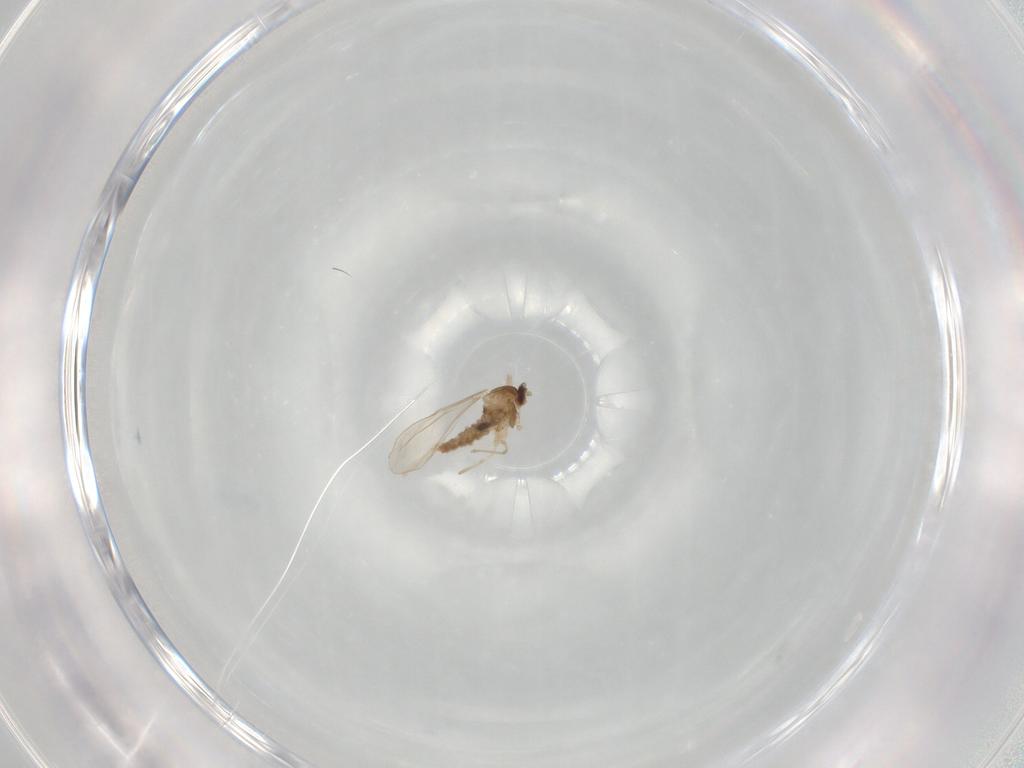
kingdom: Animalia
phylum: Arthropoda
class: Insecta
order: Diptera
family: Cecidomyiidae
